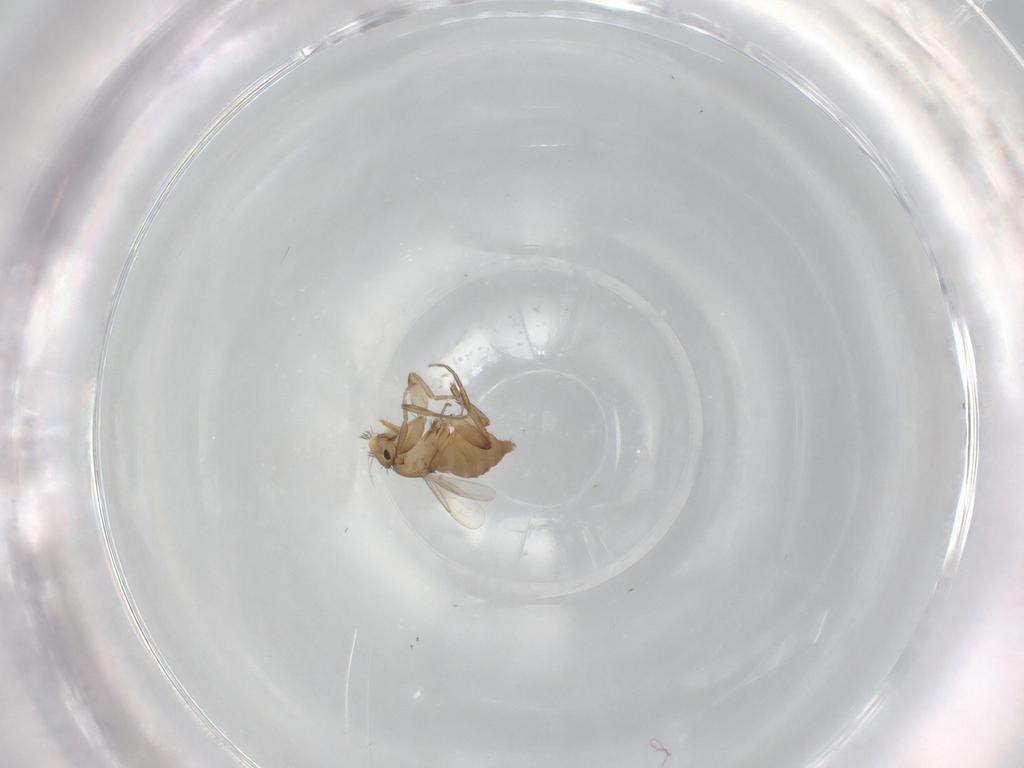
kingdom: Animalia
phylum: Arthropoda
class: Insecta
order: Diptera
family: Phoridae
